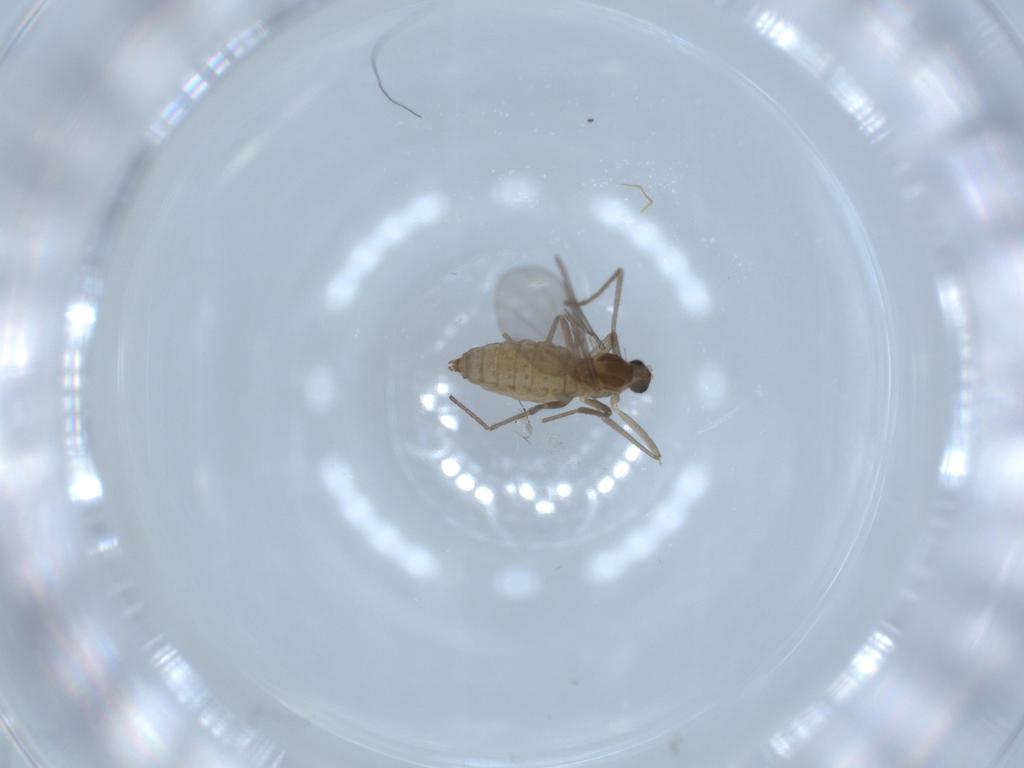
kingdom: Animalia
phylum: Arthropoda
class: Insecta
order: Diptera
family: Cecidomyiidae
